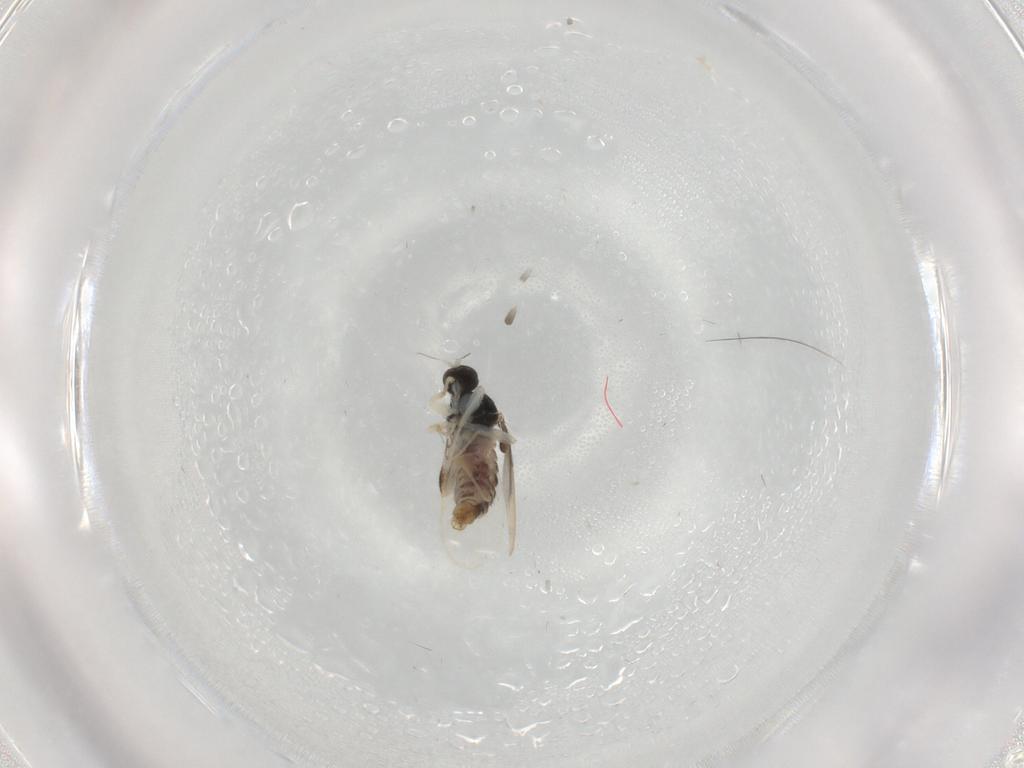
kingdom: Animalia
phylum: Arthropoda
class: Insecta
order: Diptera
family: Hybotidae
